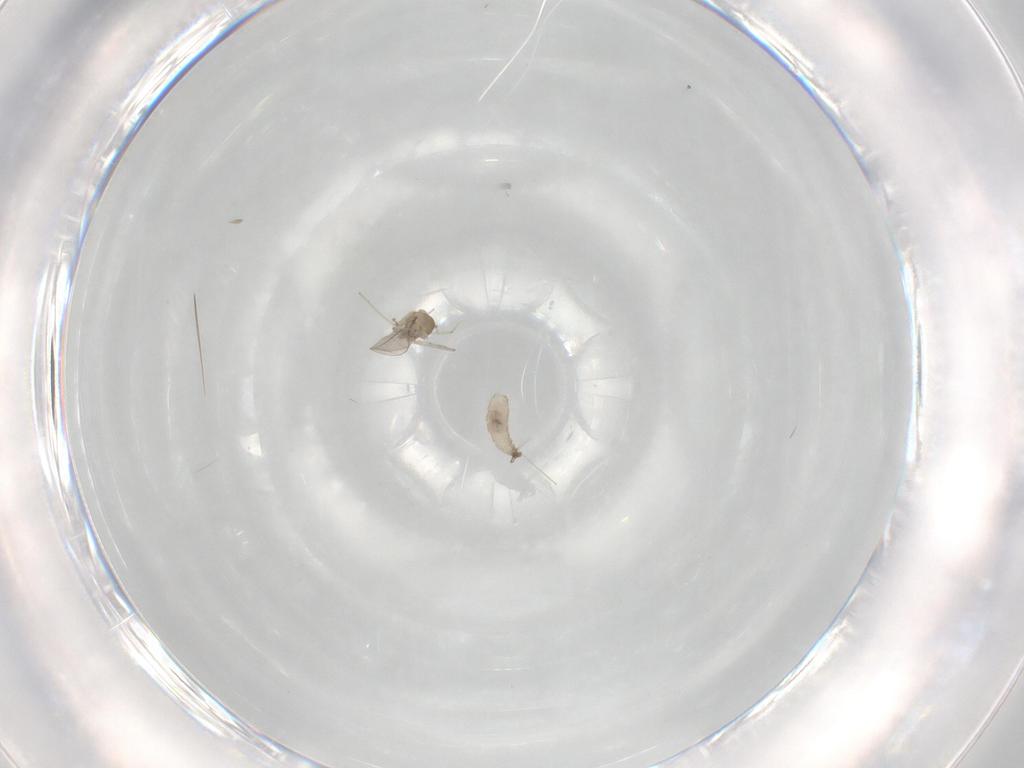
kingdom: Animalia
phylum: Arthropoda
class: Insecta
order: Diptera
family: Cecidomyiidae
